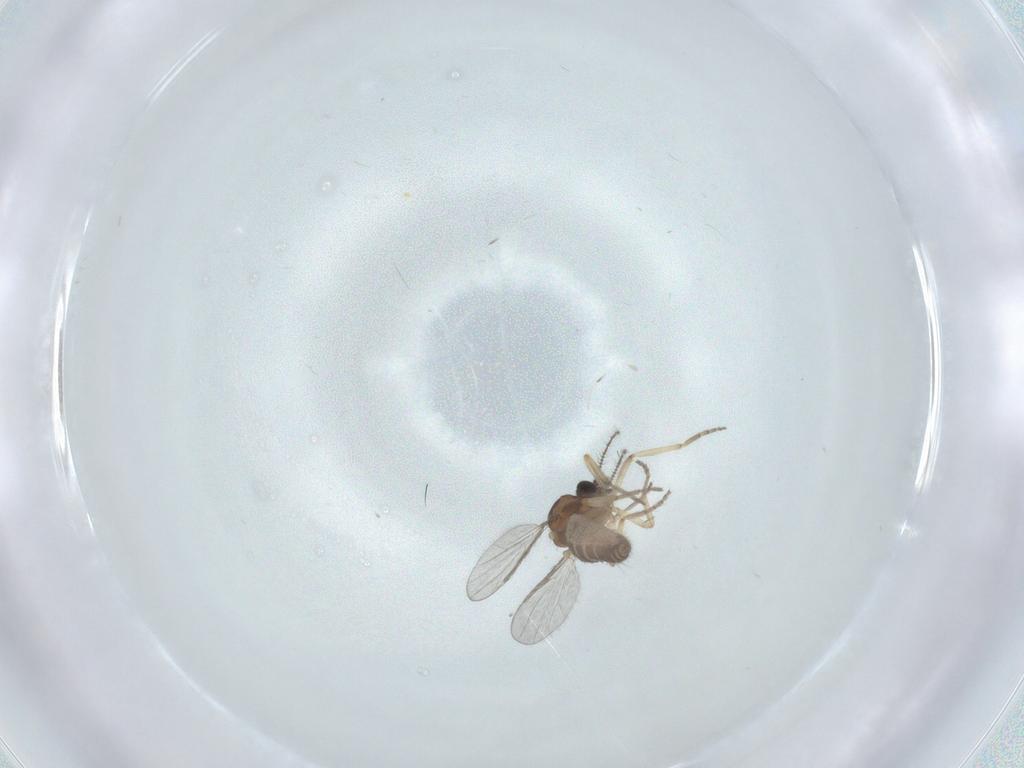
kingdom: Animalia
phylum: Arthropoda
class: Insecta
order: Diptera
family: Ceratopogonidae
